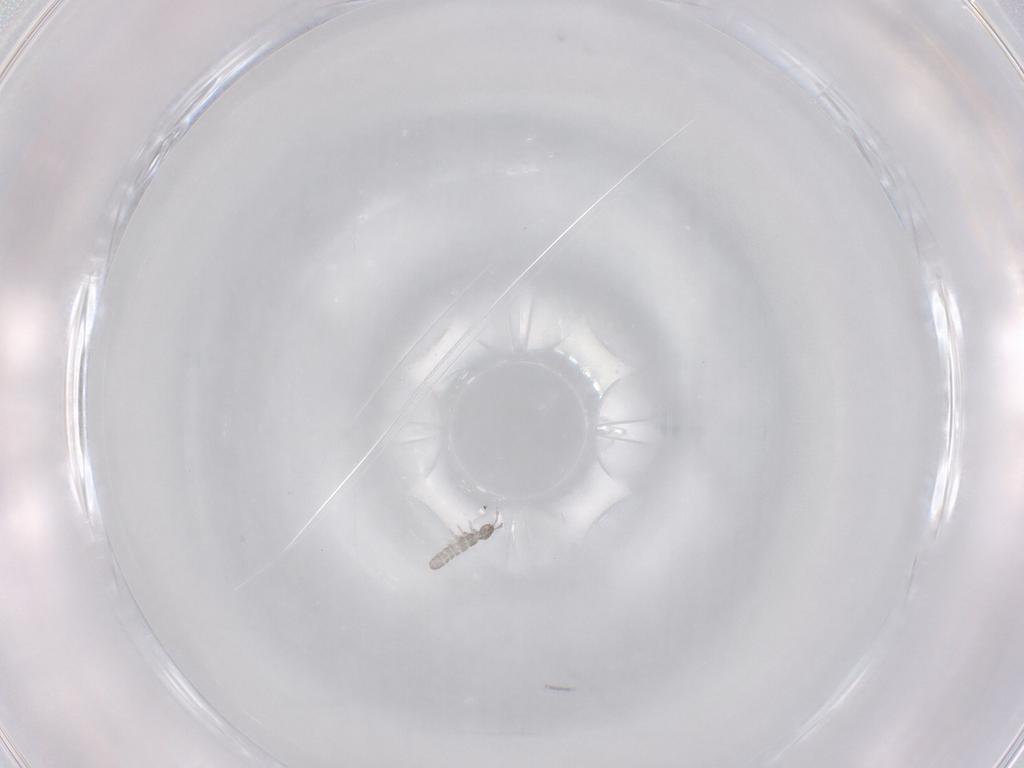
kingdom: Animalia
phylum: Arthropoda
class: Collembola
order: Entomobryomorpha
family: Isotomidae
